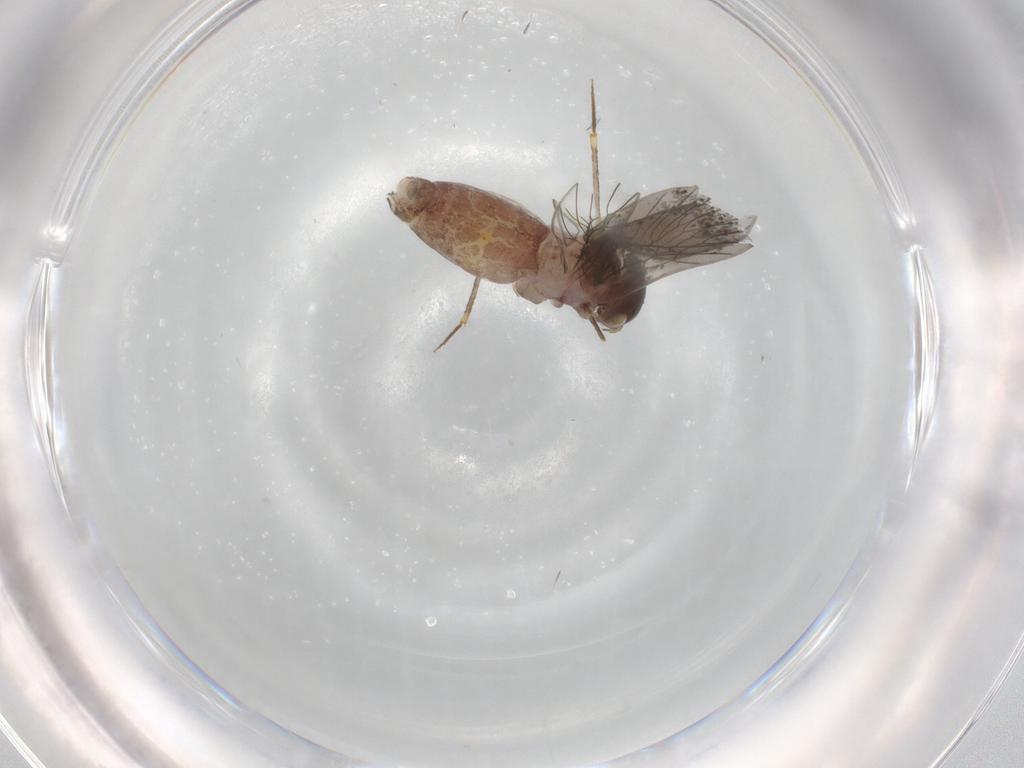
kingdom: Animalia
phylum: Arthropoda
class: Insecta
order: Psocodea
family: Lepidopsocidae
